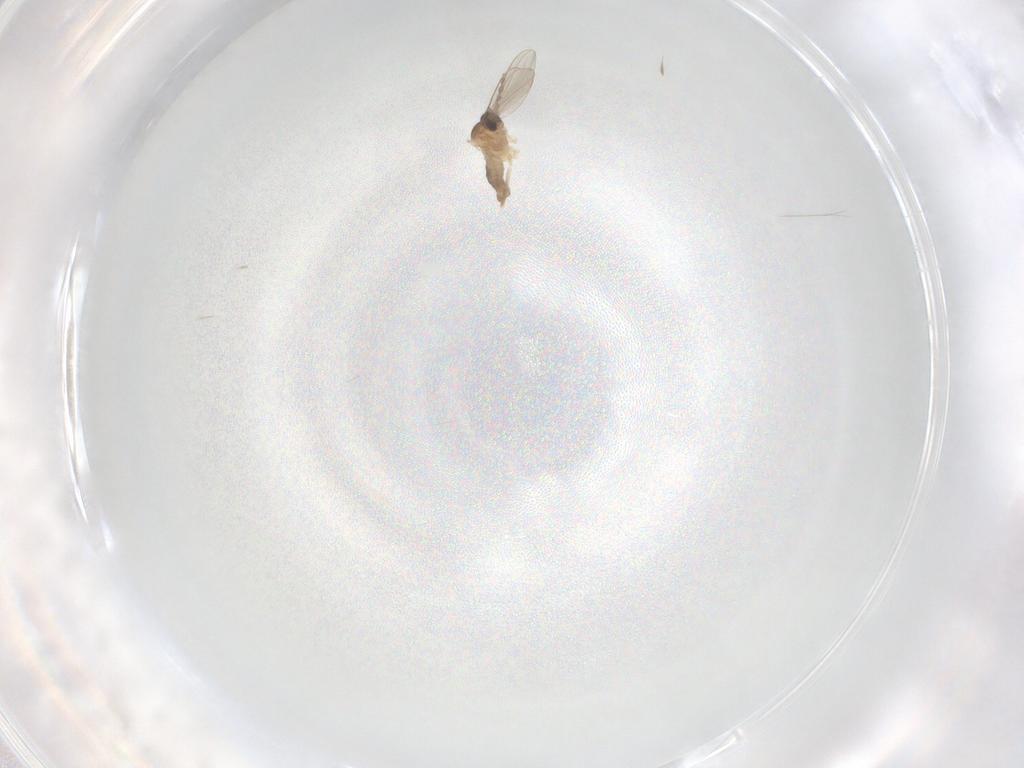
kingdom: Animalia
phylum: Arthropoda
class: Insecta
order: Diptera
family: Cecidomyiidae
